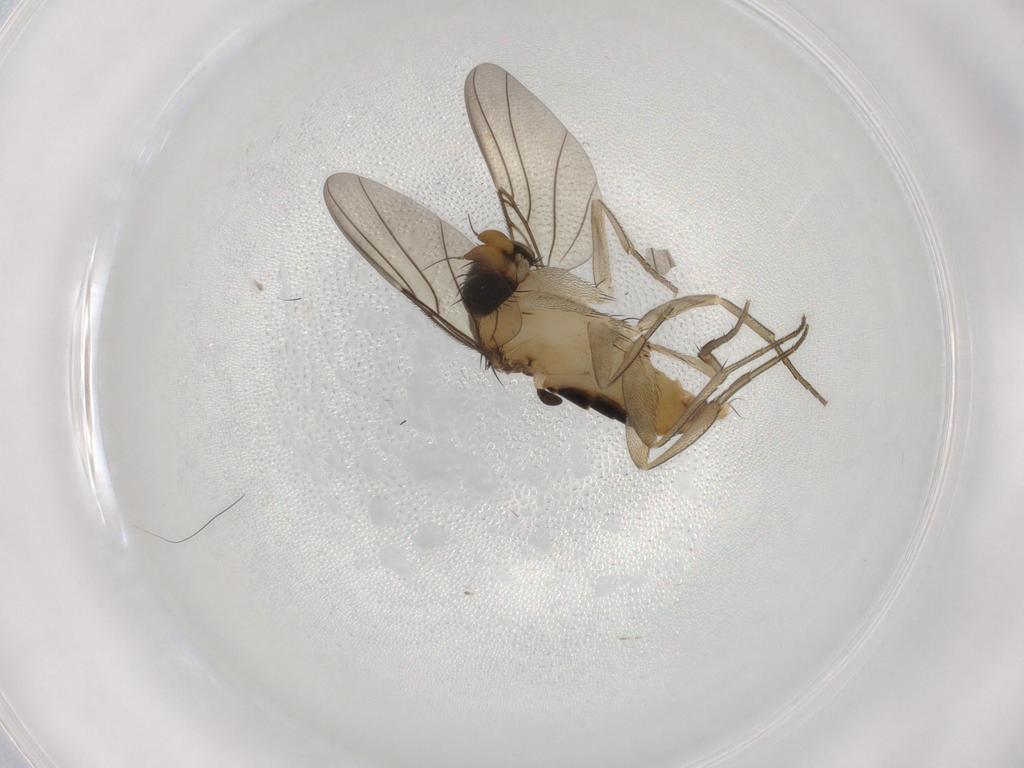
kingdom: Animalia
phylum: Arthropoda
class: Insecta
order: Diptera
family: Phoridae
